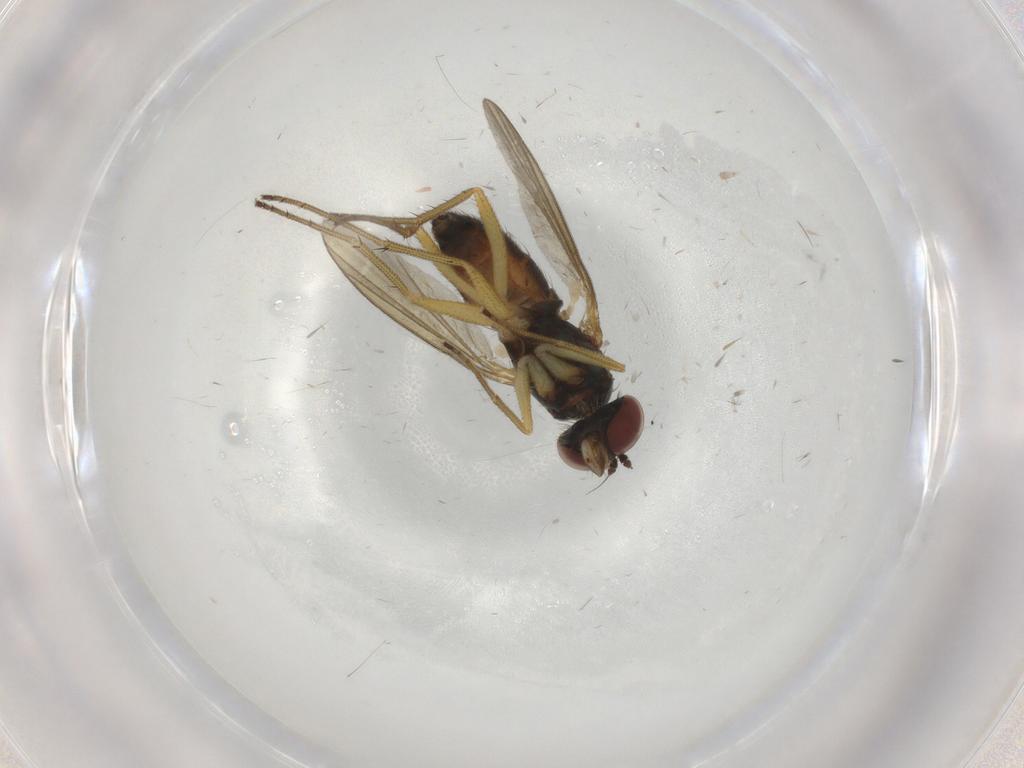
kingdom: Animalia
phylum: Arthropoda
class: Insecta
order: Diptera
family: Dolichopodidae
